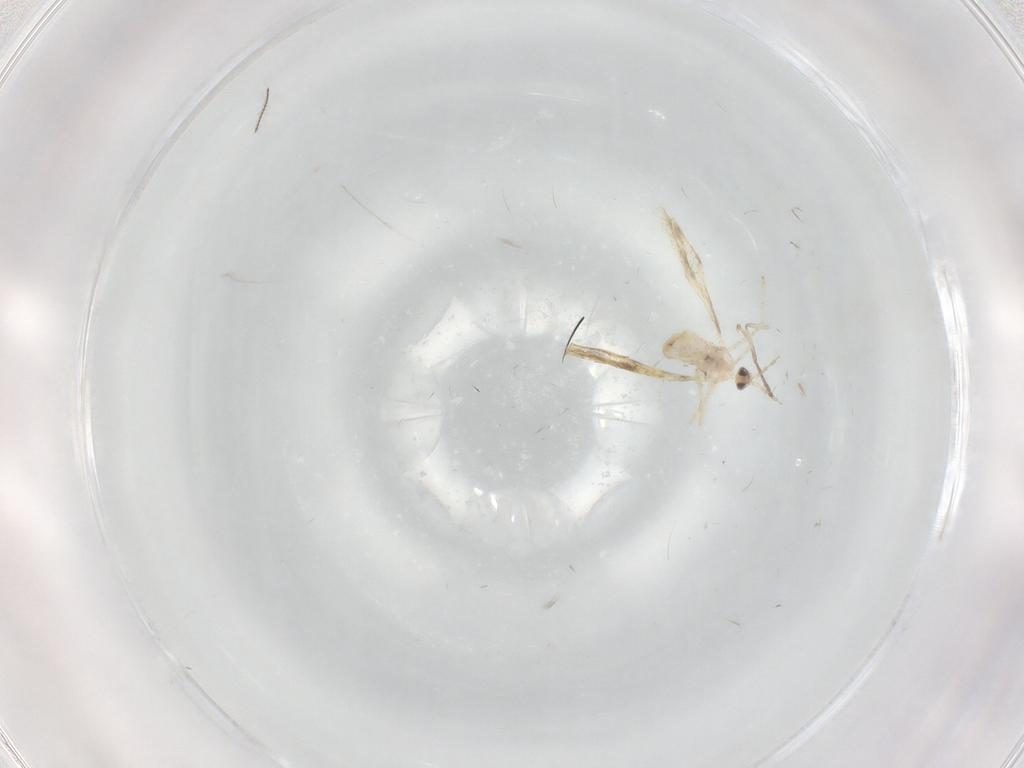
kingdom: Animalia
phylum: Arthropoda
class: Insecta
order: Diptera
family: Cecidomyiidae
